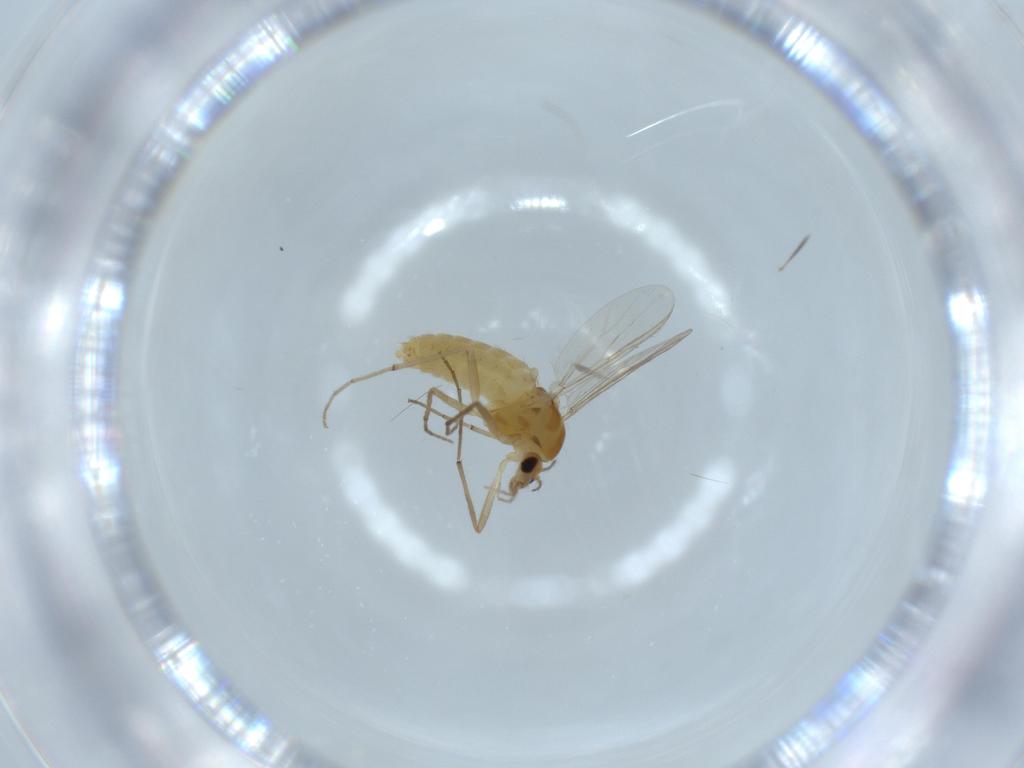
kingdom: Animalia
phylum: Arthropoda
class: Insecta
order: Diptera
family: Chironomidae
